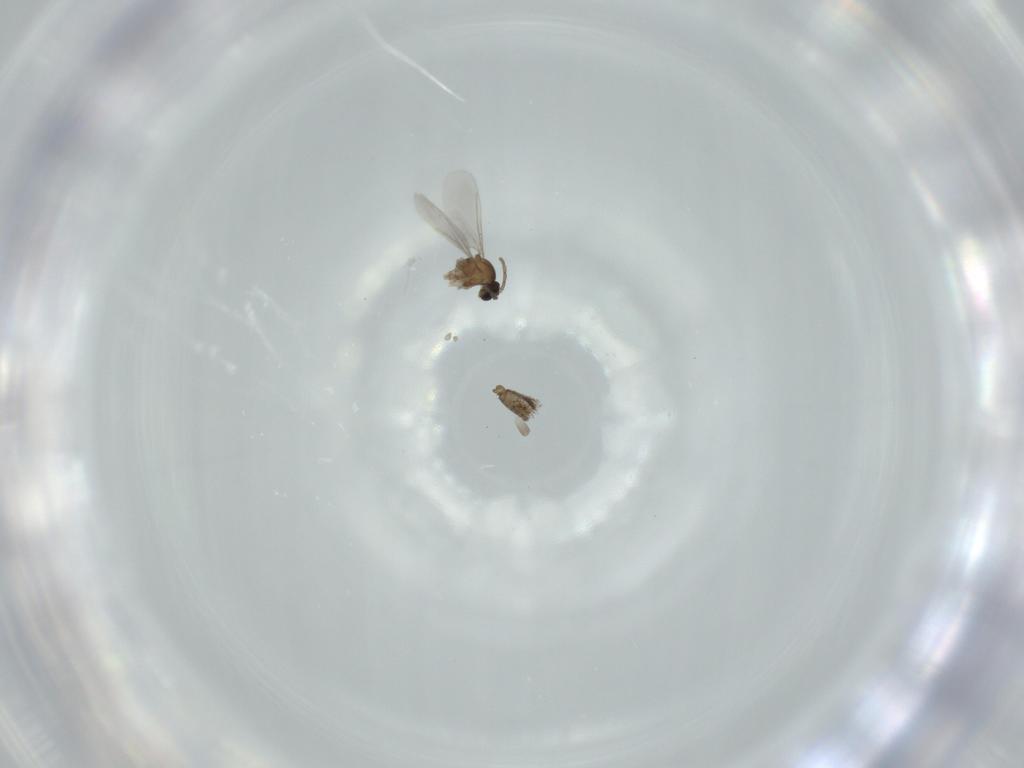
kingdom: Animalia
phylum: Arthropoda
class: Insecta
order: Diptera
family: Cecidomyiidae
